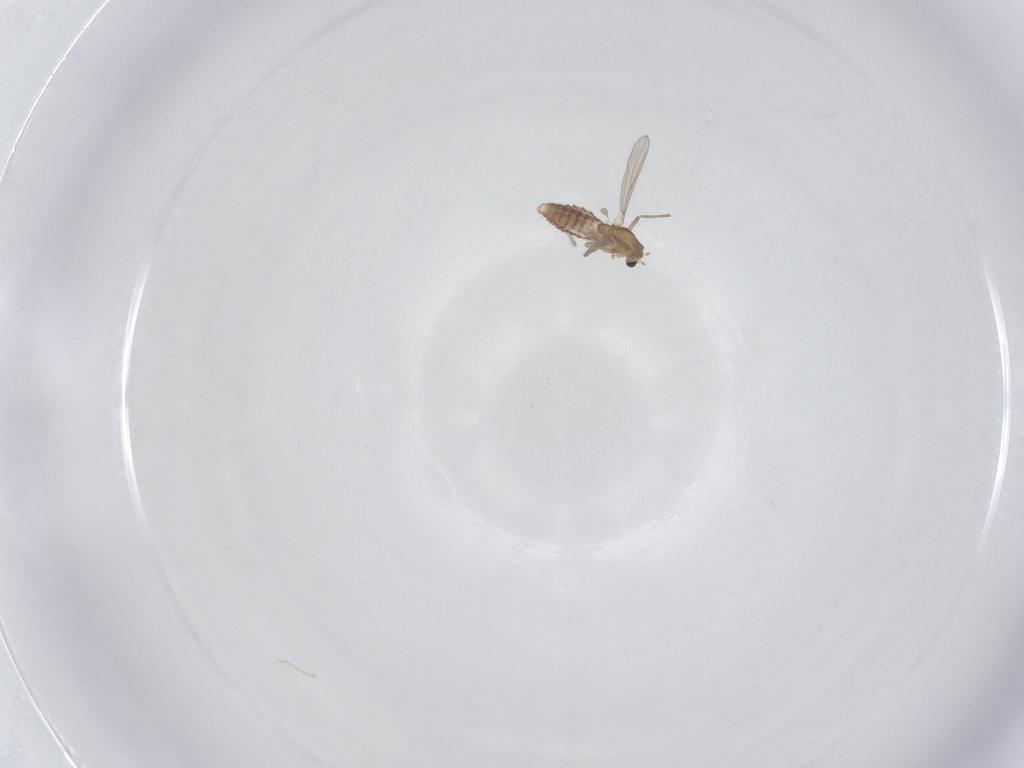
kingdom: Animalia
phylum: Arthropoda
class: Insecta
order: Diptera
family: Chironomidae
